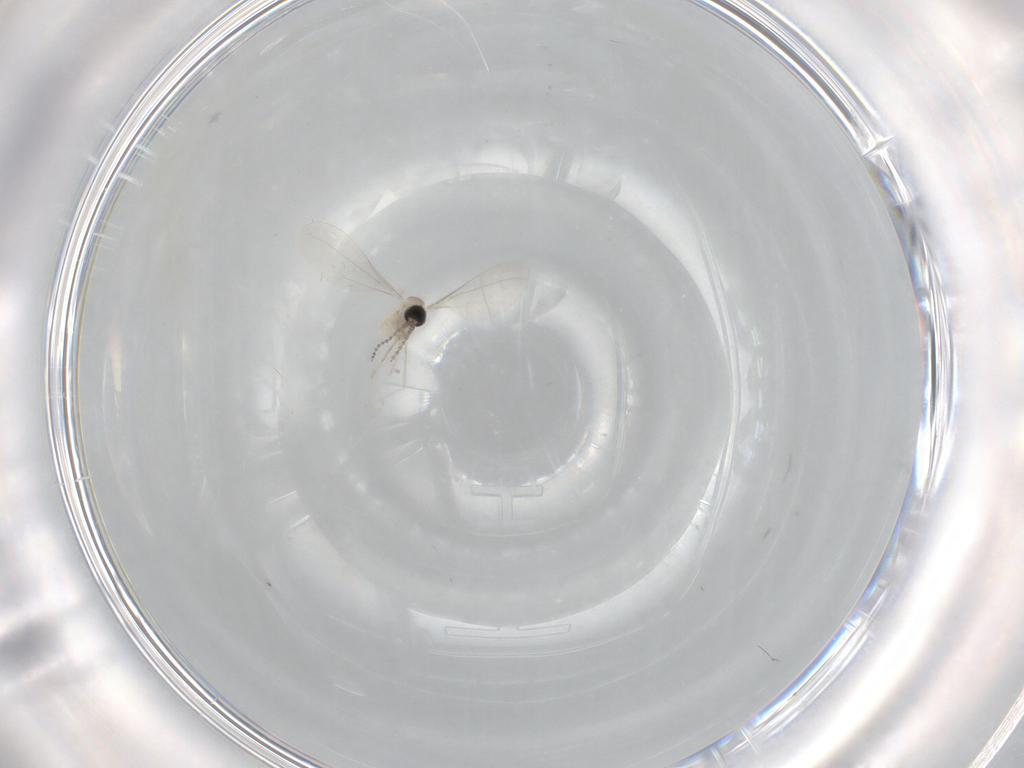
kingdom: Animalia
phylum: Arthropoda
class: Insecta
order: Diptera
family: Cecidomyiidae
